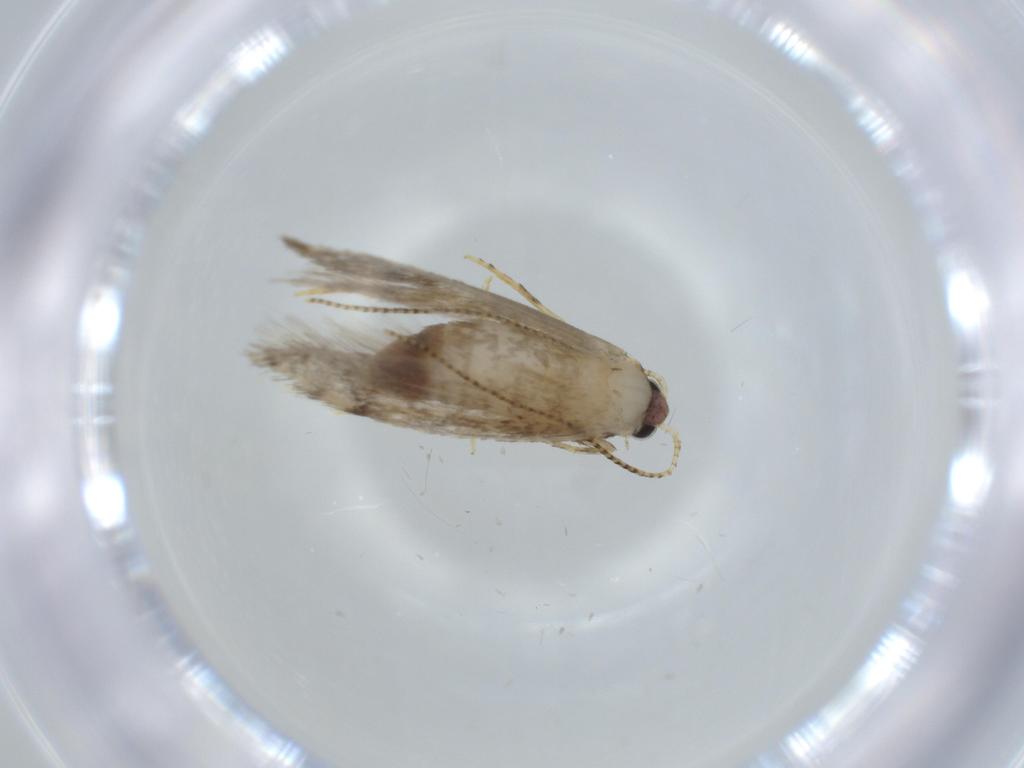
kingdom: Animalia
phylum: Arthropoda
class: Insecta
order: Lepidoptera
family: Tineidae
